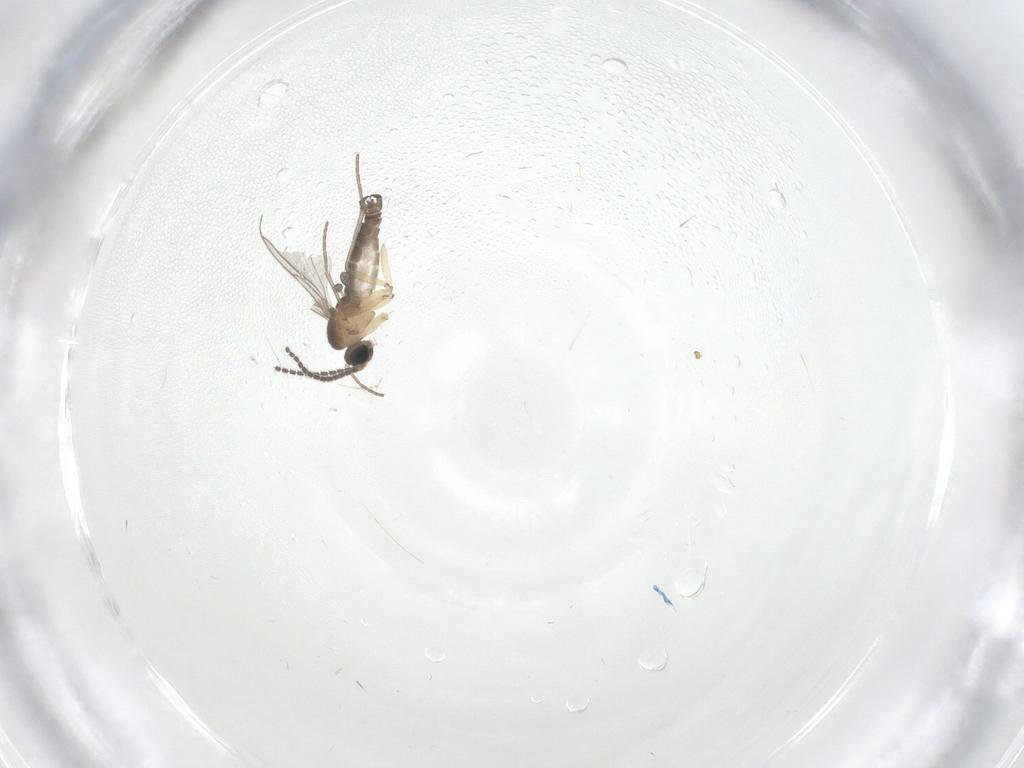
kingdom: Animalia
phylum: Arthropoda
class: Insecta
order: Diptera
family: Sciaridae
